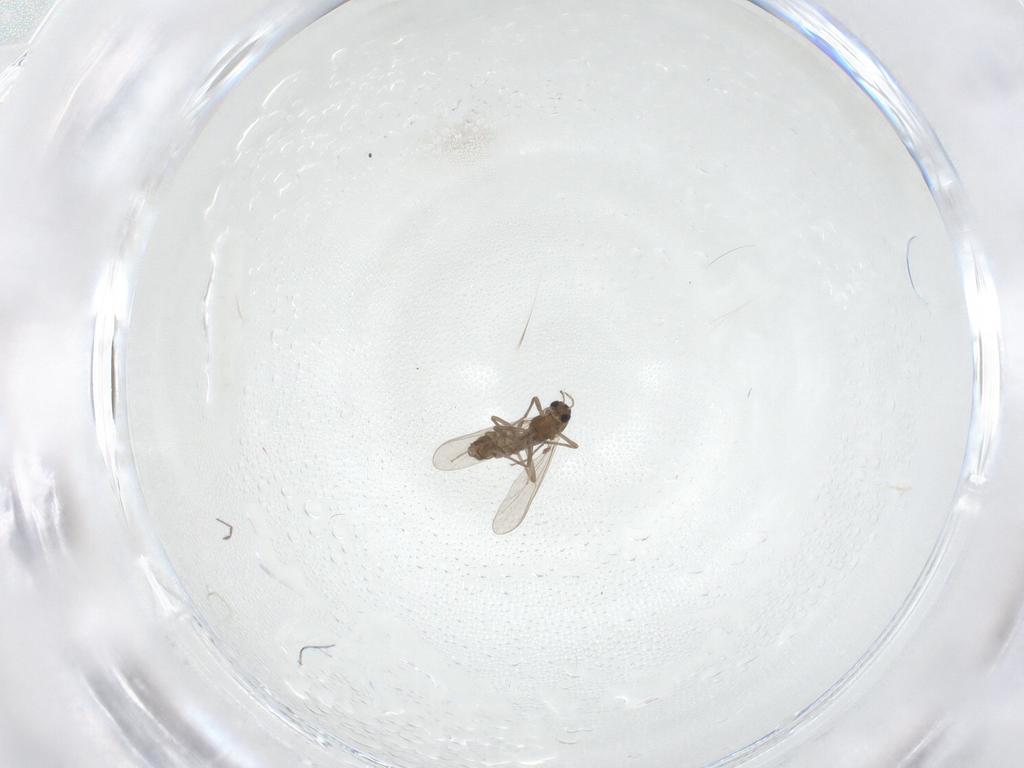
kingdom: Animalia
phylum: Arthropoda
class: Insecta
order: Diptera
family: Chironomidae
